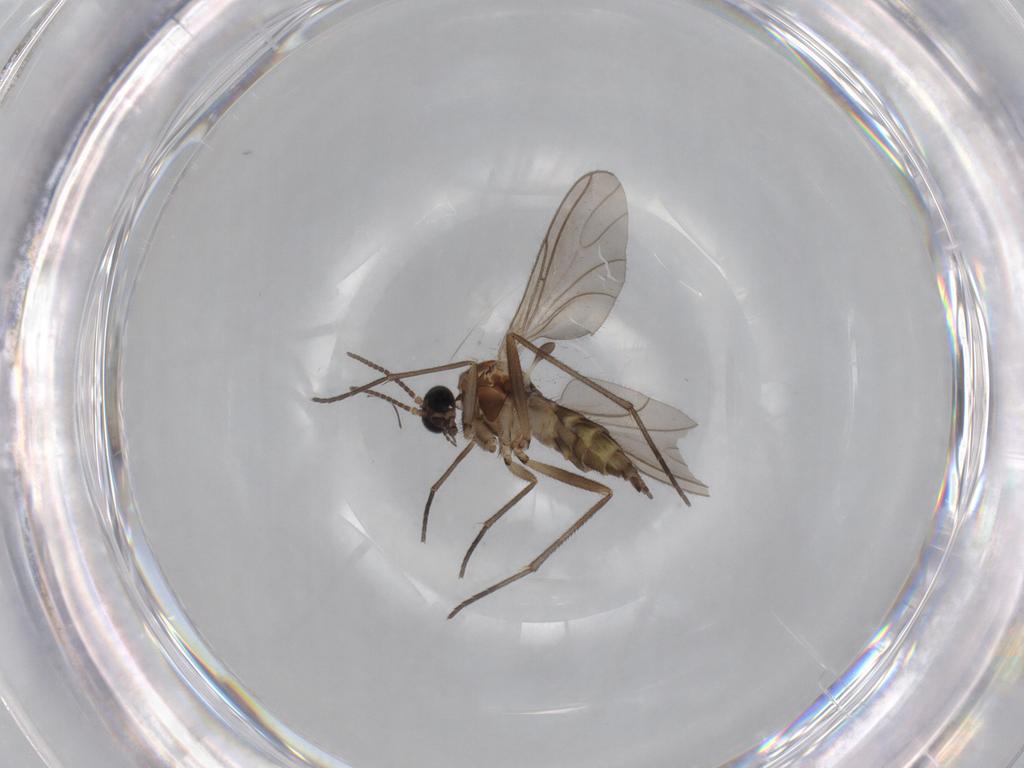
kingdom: Animalia
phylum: Arthropoda
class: Insecta
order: Diptera
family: Sciaridae
